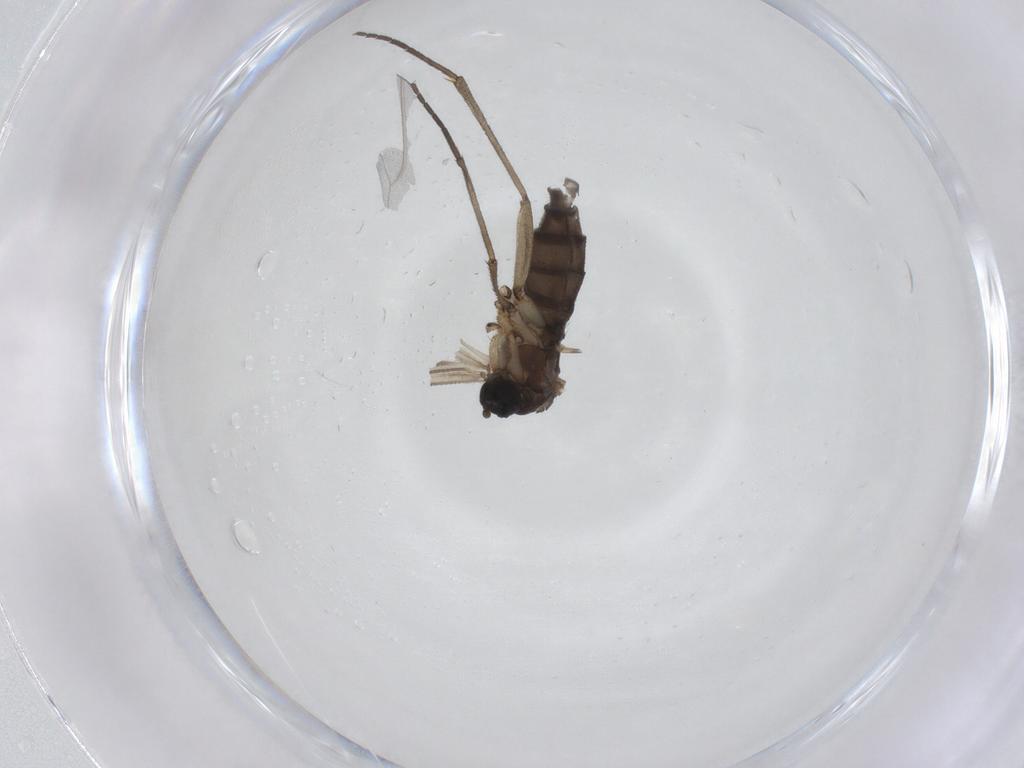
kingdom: Animalia
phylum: Arthropoda
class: Insecta
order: Diptera
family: Sciaridae
